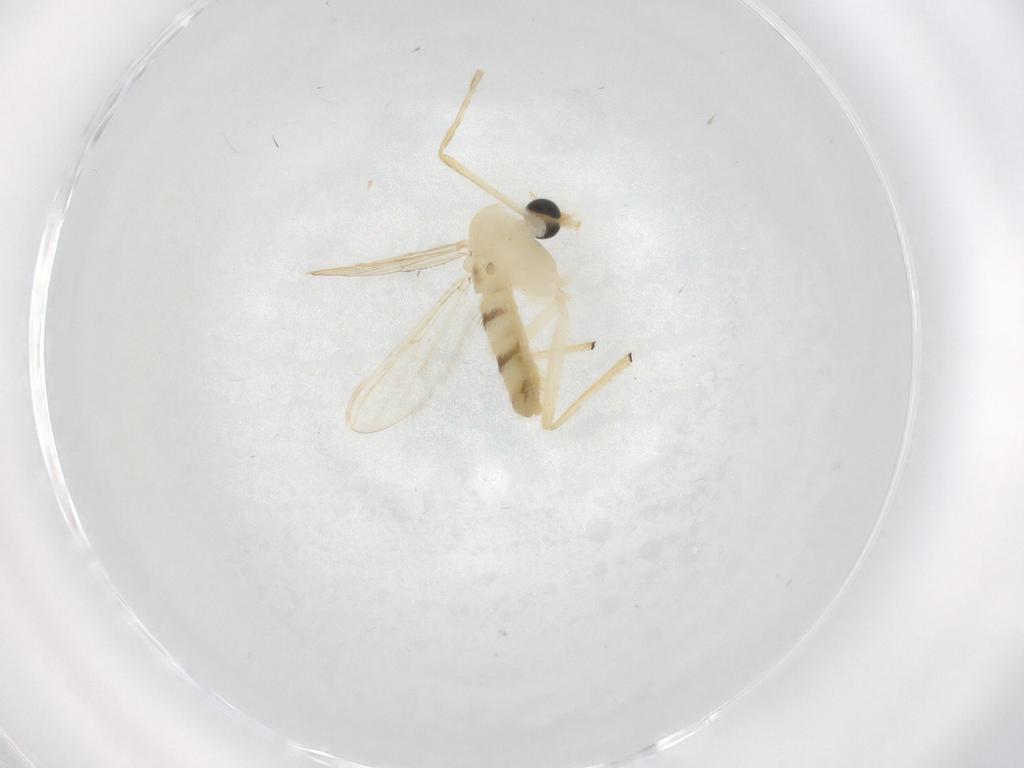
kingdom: Animalia
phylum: Arthropoda
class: Insecta
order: Diptera
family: Chironomidae
